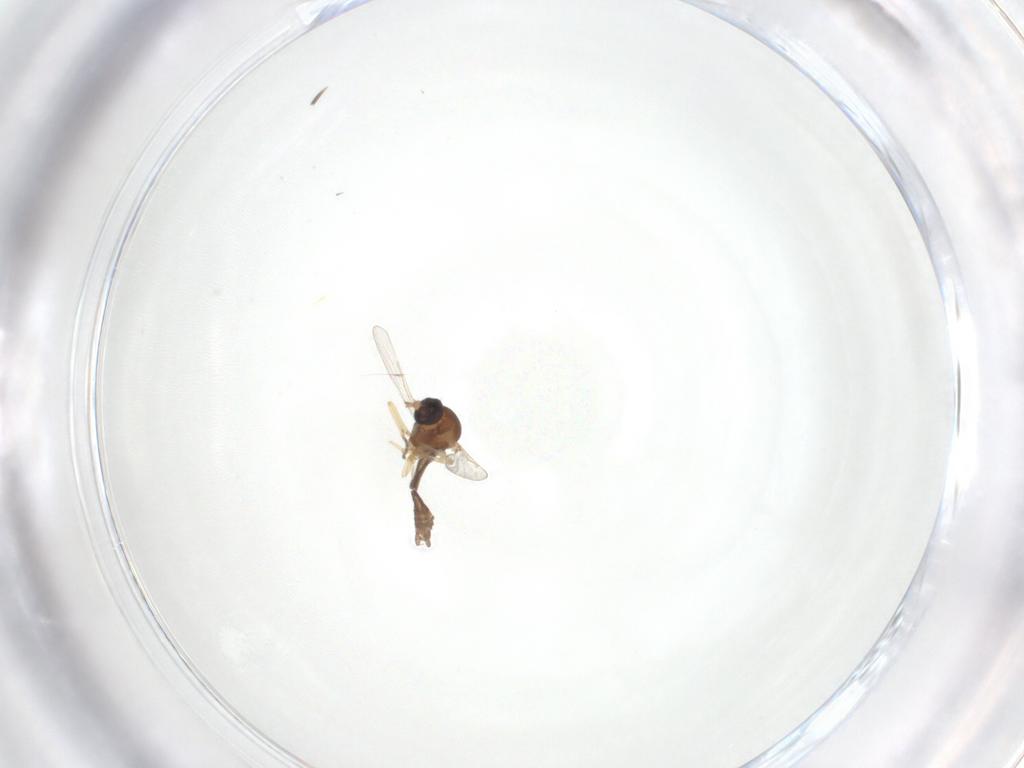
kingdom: Animalia
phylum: Arthropoda
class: Insecta
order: Diptera
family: Ceratopogonidae
